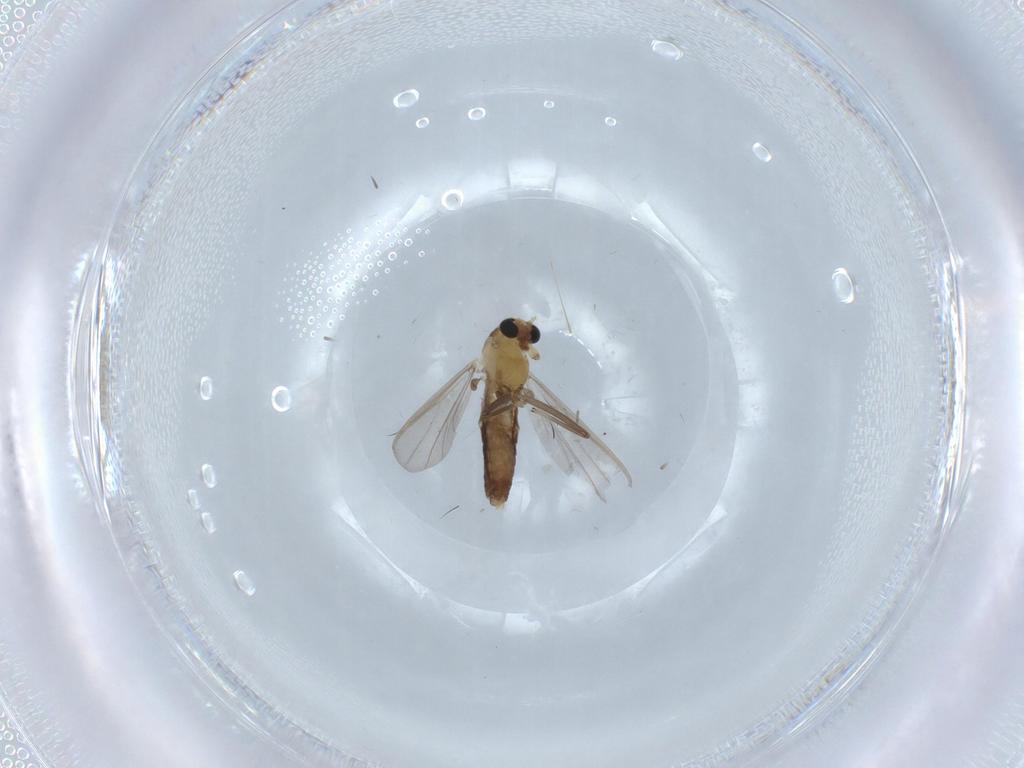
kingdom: Animalia
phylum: Arthropoda
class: Insecta
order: Diptera
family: Chironomidae
